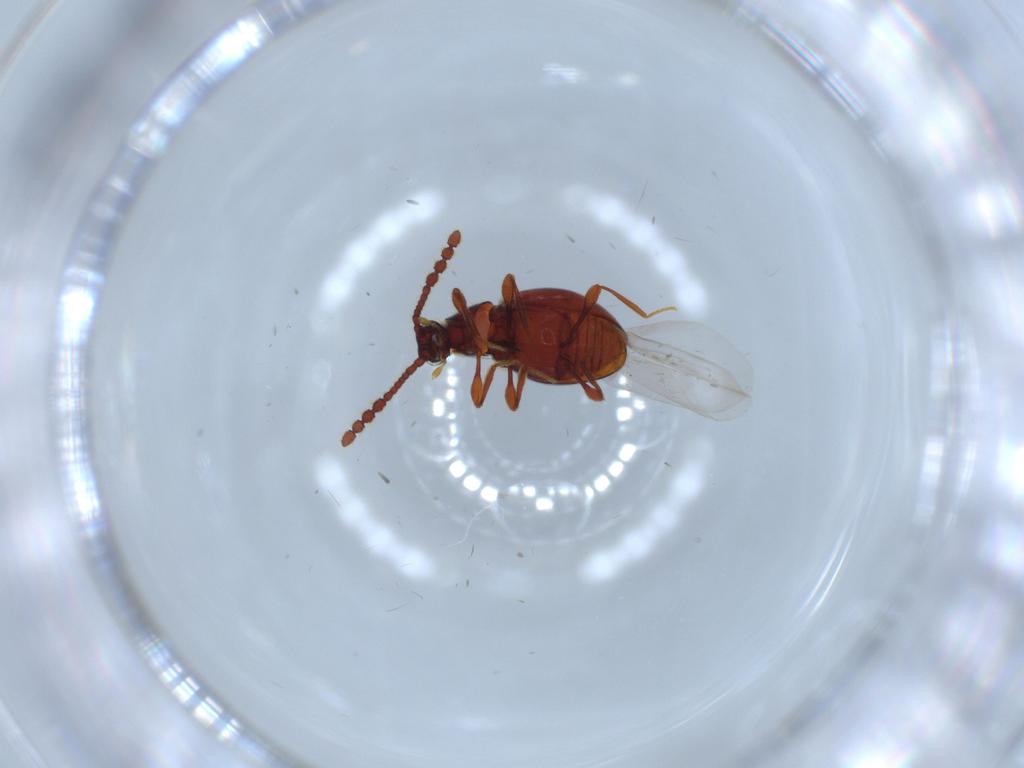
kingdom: Animalia
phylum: Arthropoda
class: Insecta
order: Coleoptera
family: Staphylinidae
